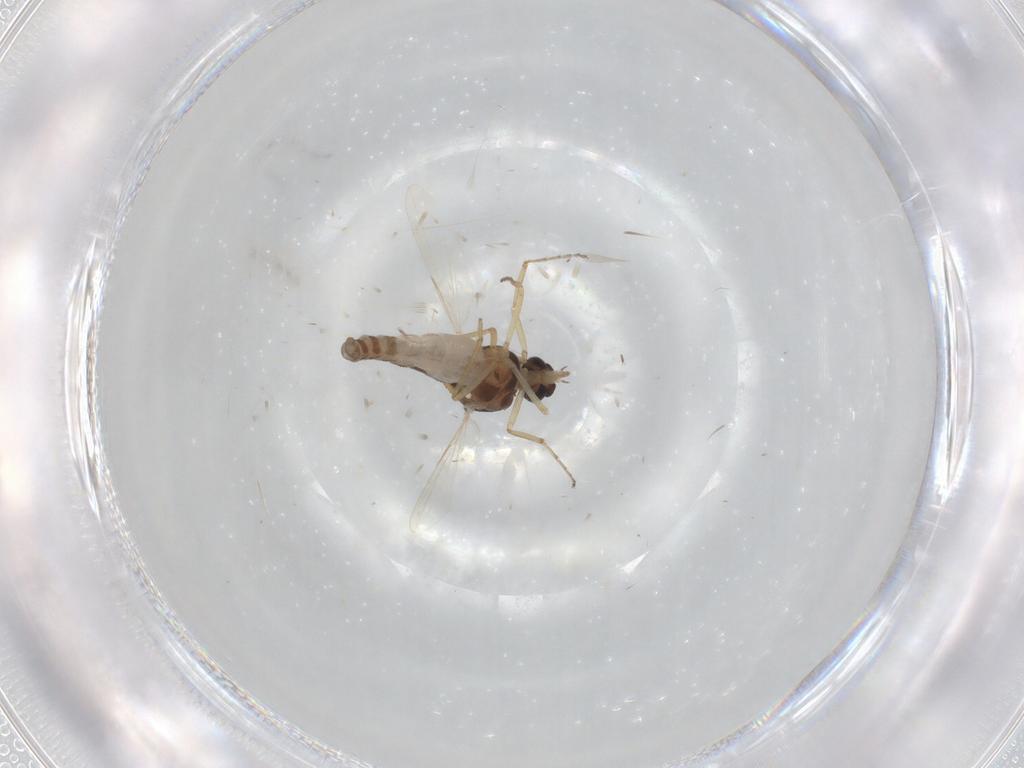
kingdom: Animalia
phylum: Arthropoda
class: Insecta
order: Diptera
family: Ceratopogonidae
